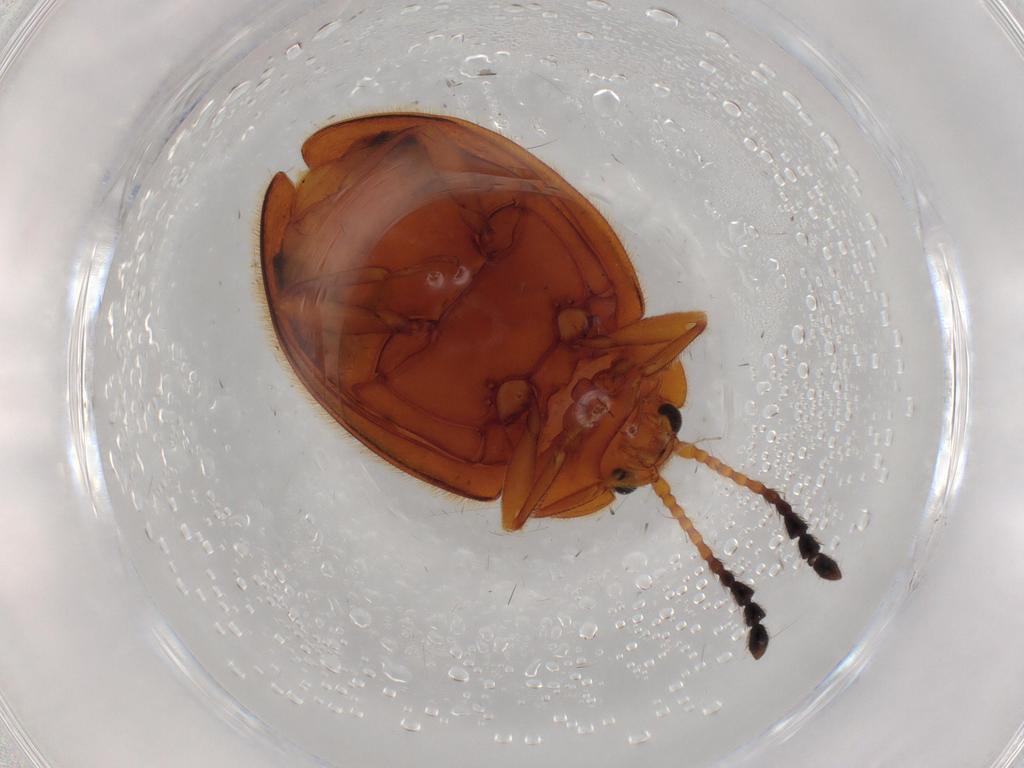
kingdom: Animalia
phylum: Arthropoda
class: Insecta
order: Coleoptera
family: Endomychidae
